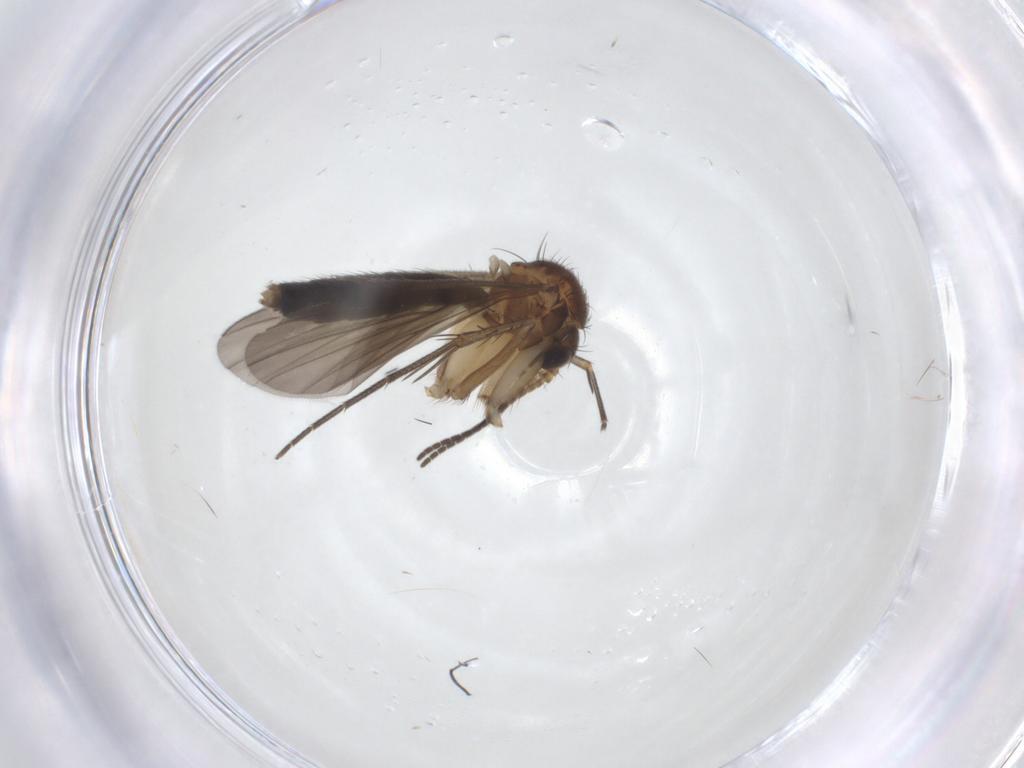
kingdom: Animalia
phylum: Arthropoda
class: Insecta
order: Diptera
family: Mycetophilidae
